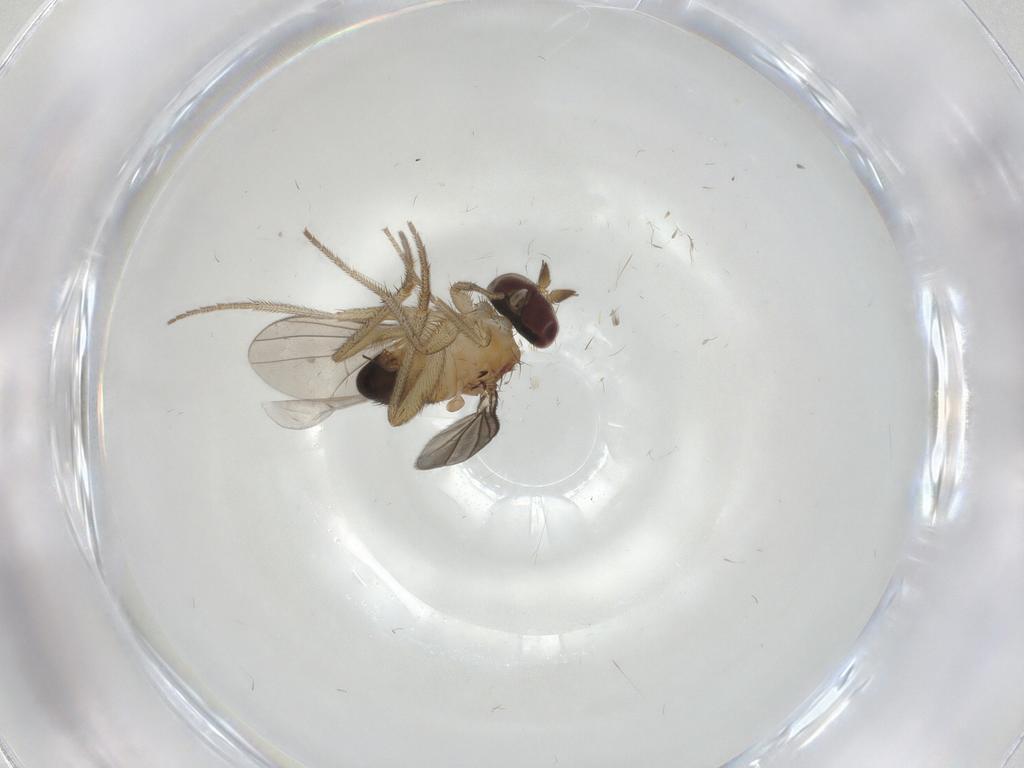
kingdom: Animalia
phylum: Arthropoda
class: Insecta
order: Diptera
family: Dolichopodidae
